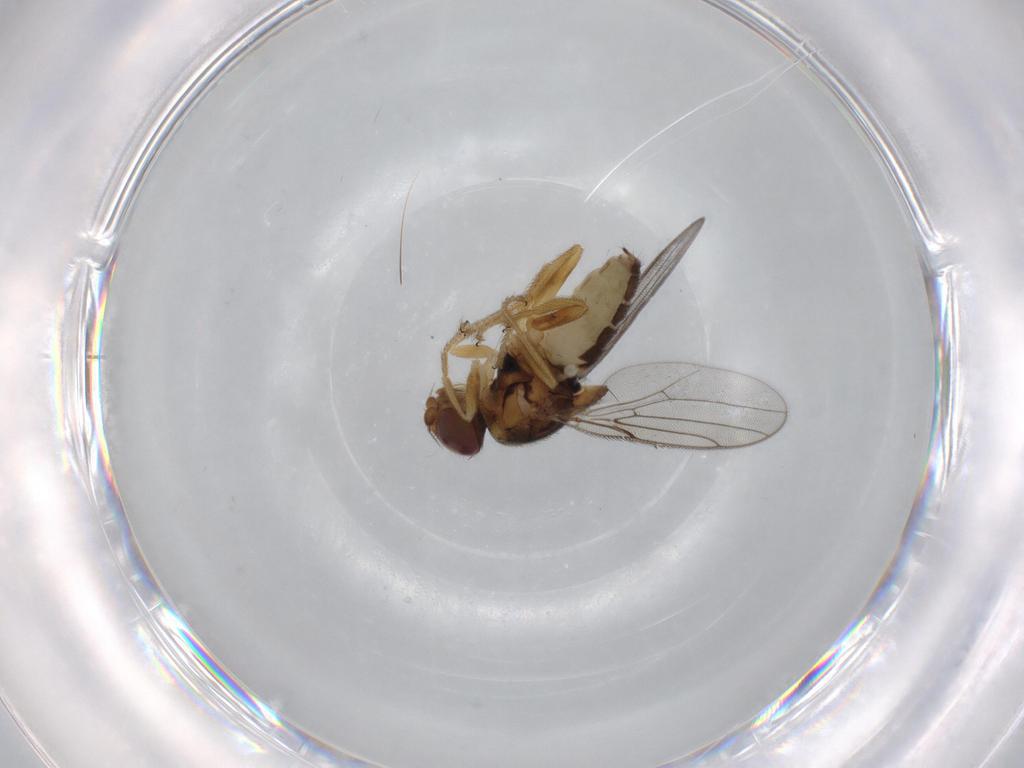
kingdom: Animalia
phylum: Arthropoda
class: Insecta
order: Diptera
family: Chloropidae
